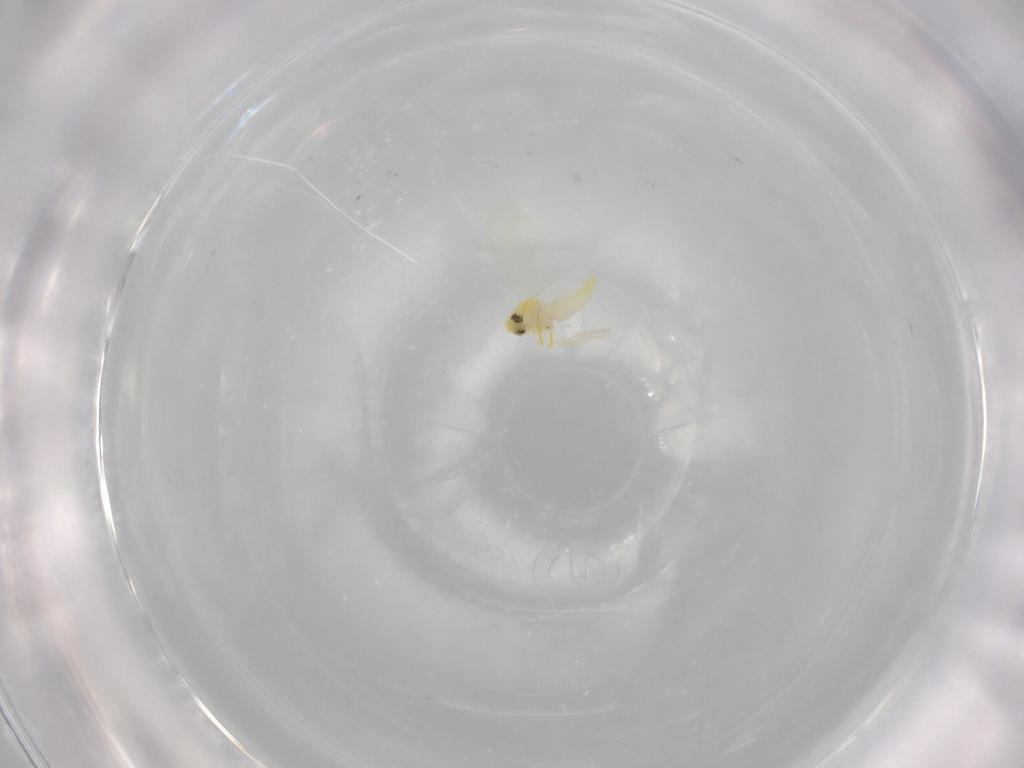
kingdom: Animalia
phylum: Arthropoda
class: Insecta
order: Hemiptera
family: Aleyrodidae
